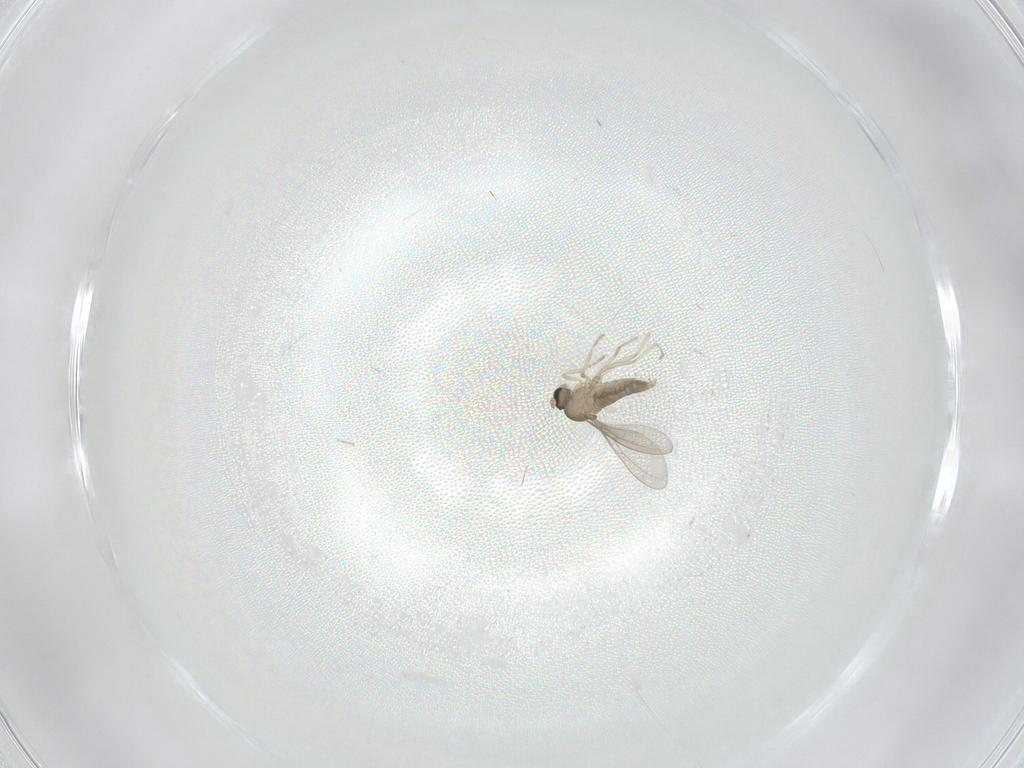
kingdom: Animalia
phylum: Arthropoda
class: Insecta
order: Diptera
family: Ceratopogonidae
